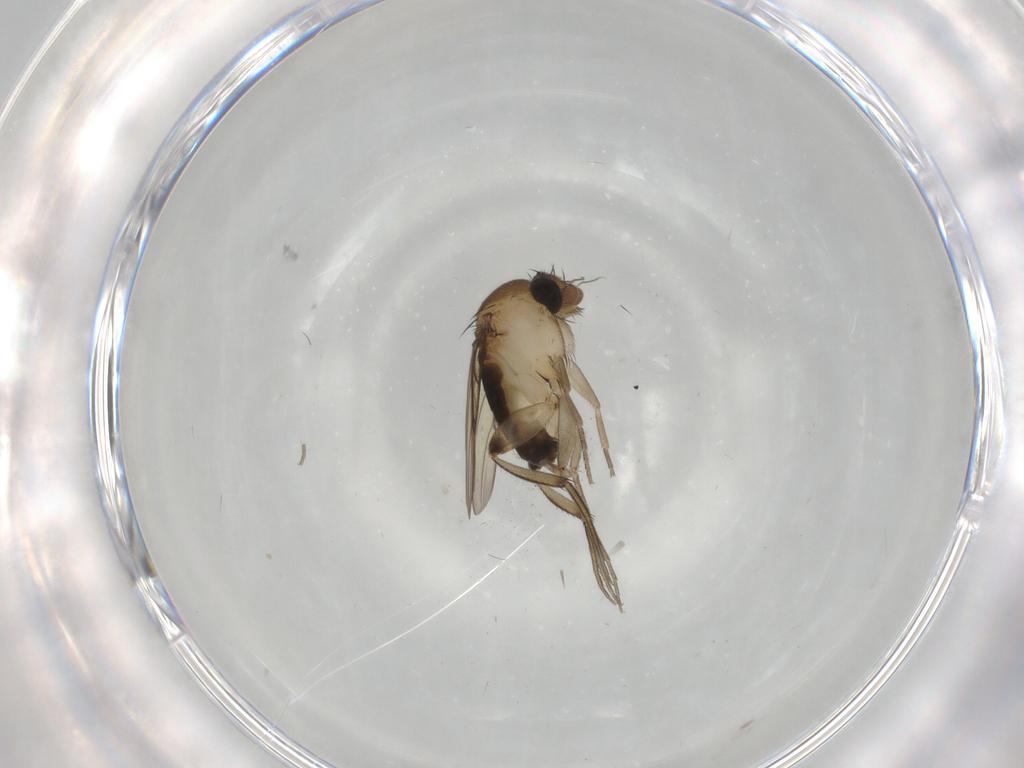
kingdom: Animalia
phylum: Arthropoda
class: Insecta
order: Diptera
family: Phoridae
